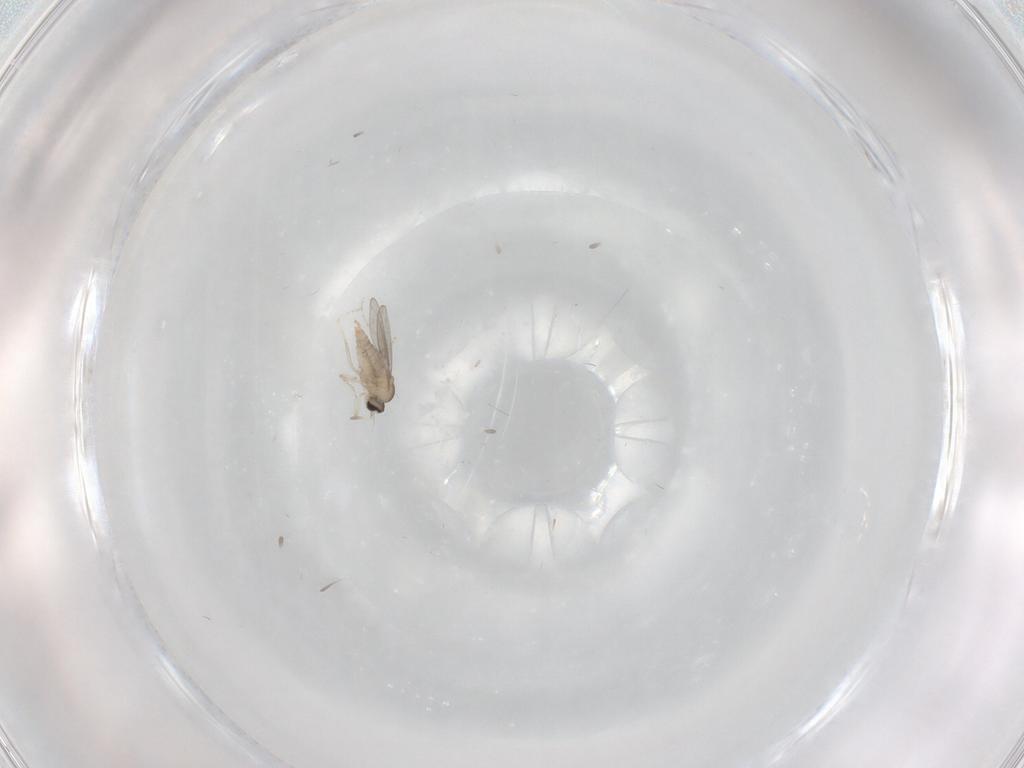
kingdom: Animalia
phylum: Arthropoda
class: Insecta
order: Diptera
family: Cecidomyiidae
